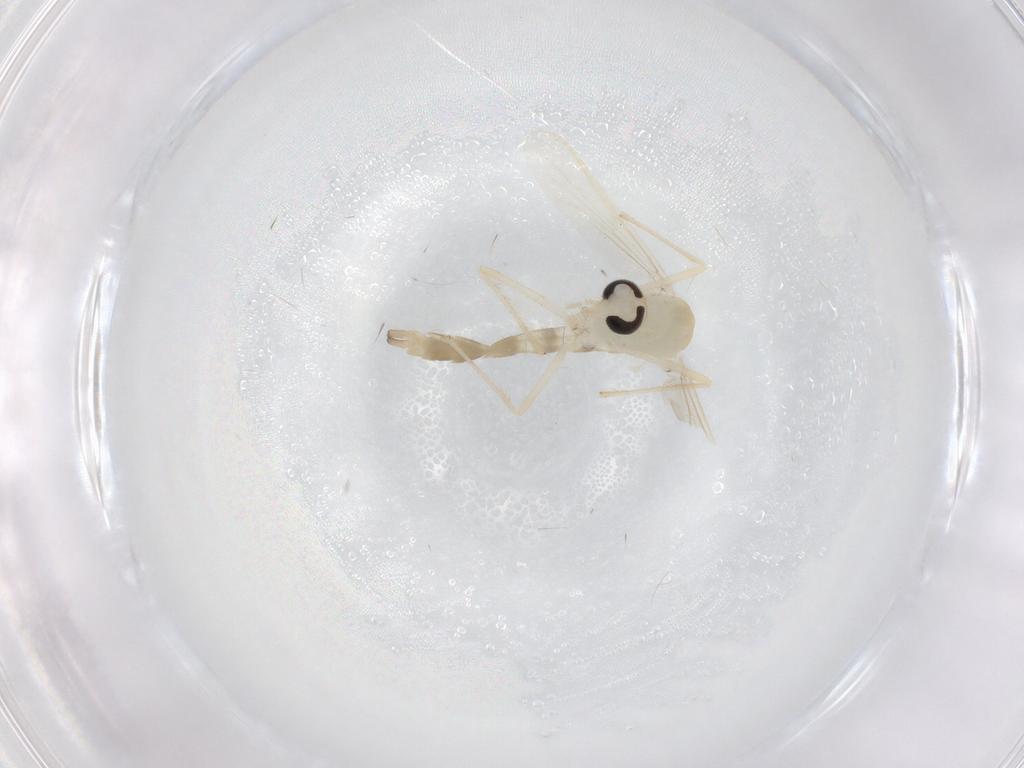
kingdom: Animalia
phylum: Arthropoda
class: Insecta
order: Diptera
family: Chironomidae
